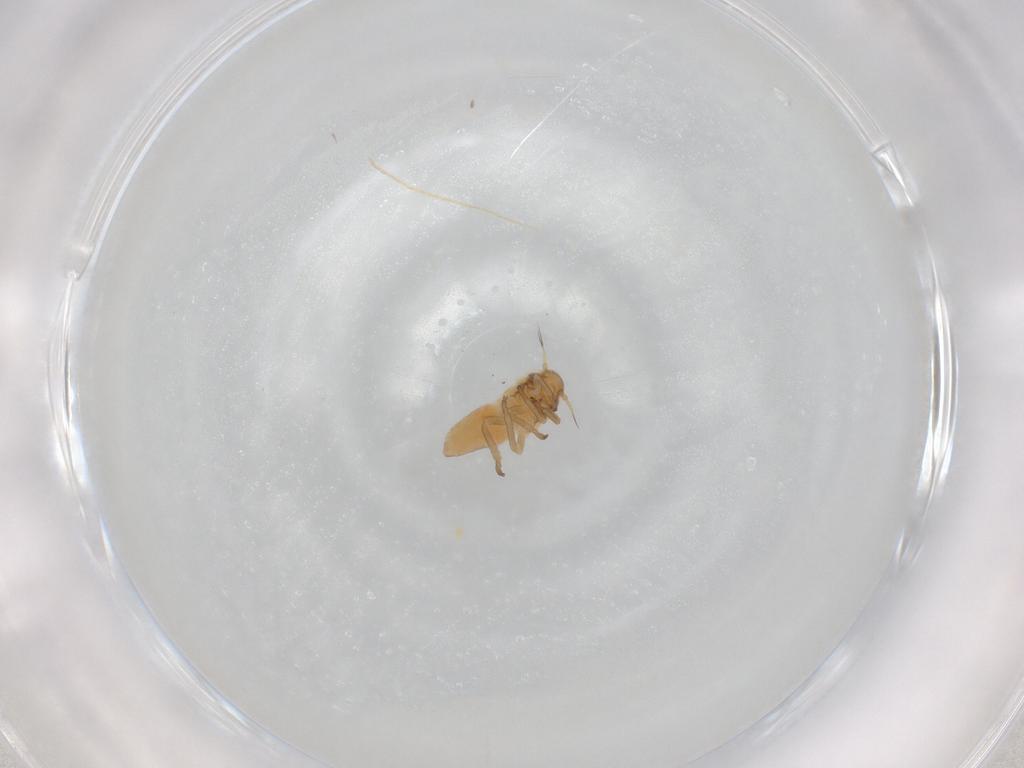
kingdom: Animalia
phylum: Arthropoda
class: Insecta
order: Hemiptera
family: Cicadellidae
